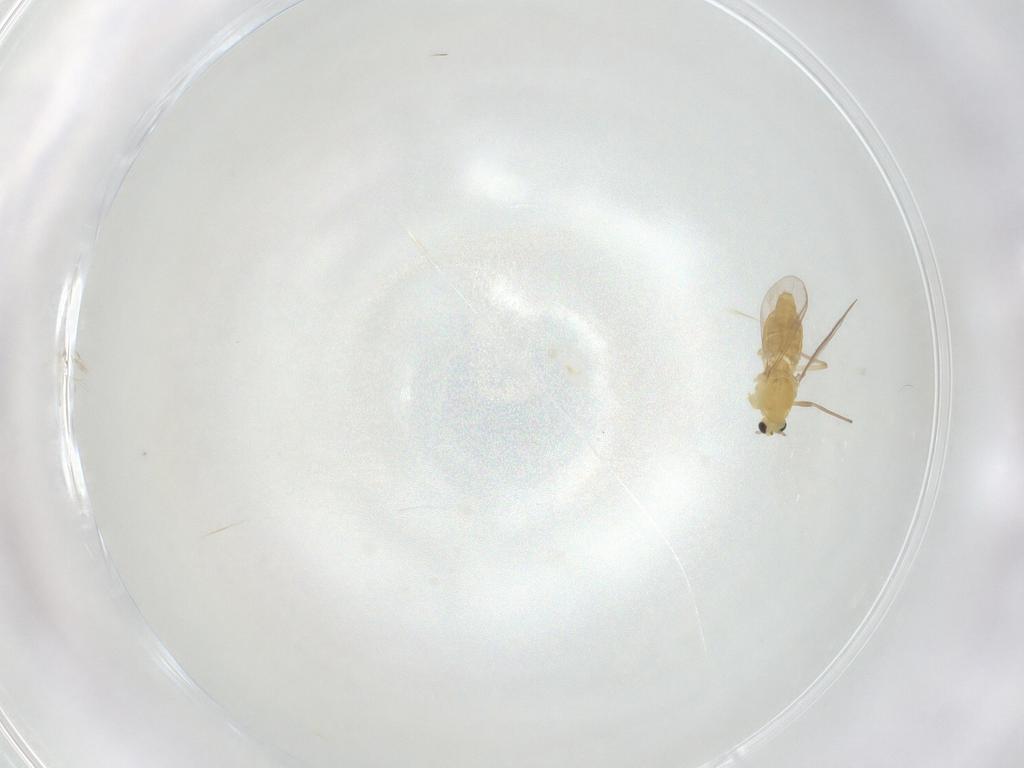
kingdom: Animalia
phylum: Arthropoda
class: Insecta
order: Diptera
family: Chironomidae
